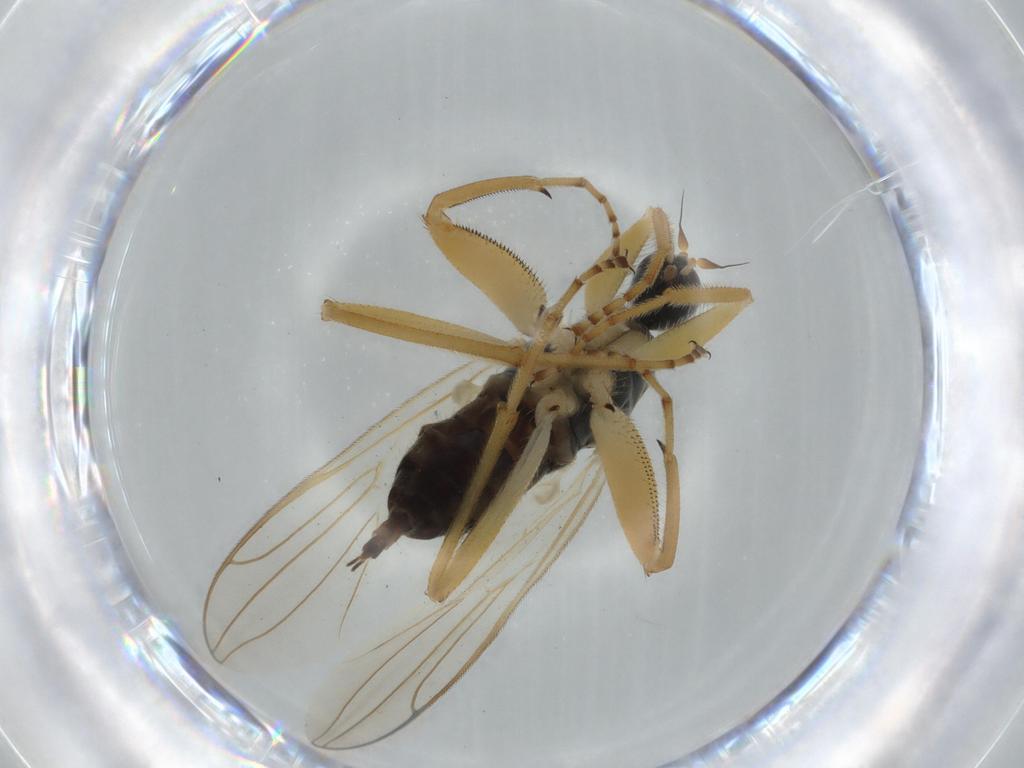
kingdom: Animalia
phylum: Arthropoda
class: Insecta
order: Diptera
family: Hybotidae
